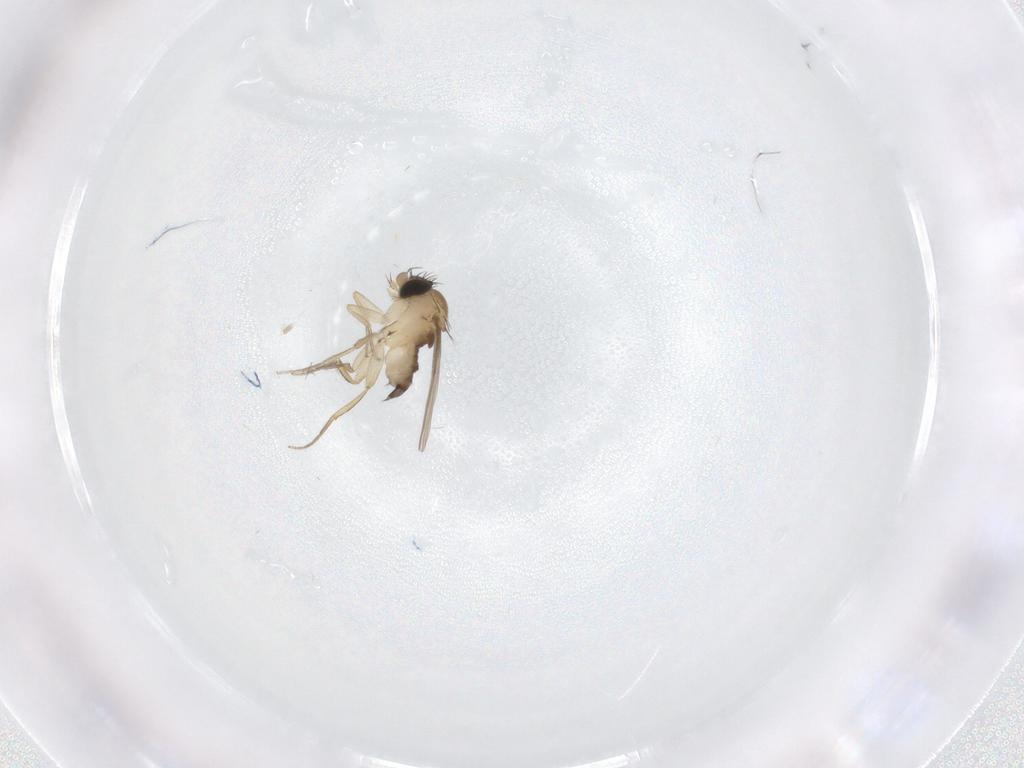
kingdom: Animalia
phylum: Arthropoda
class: Insecta
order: Diptera
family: Phoridae
